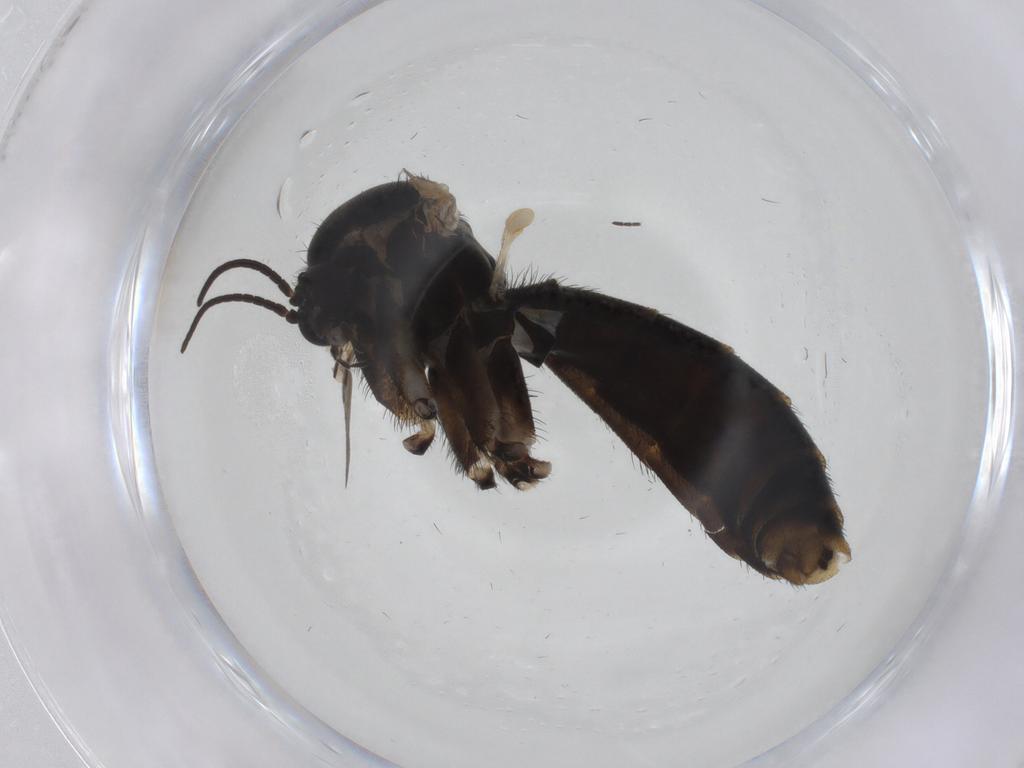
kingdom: Animalia
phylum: Arthropoda
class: Insecta
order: Diptera
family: Keroplatidae
